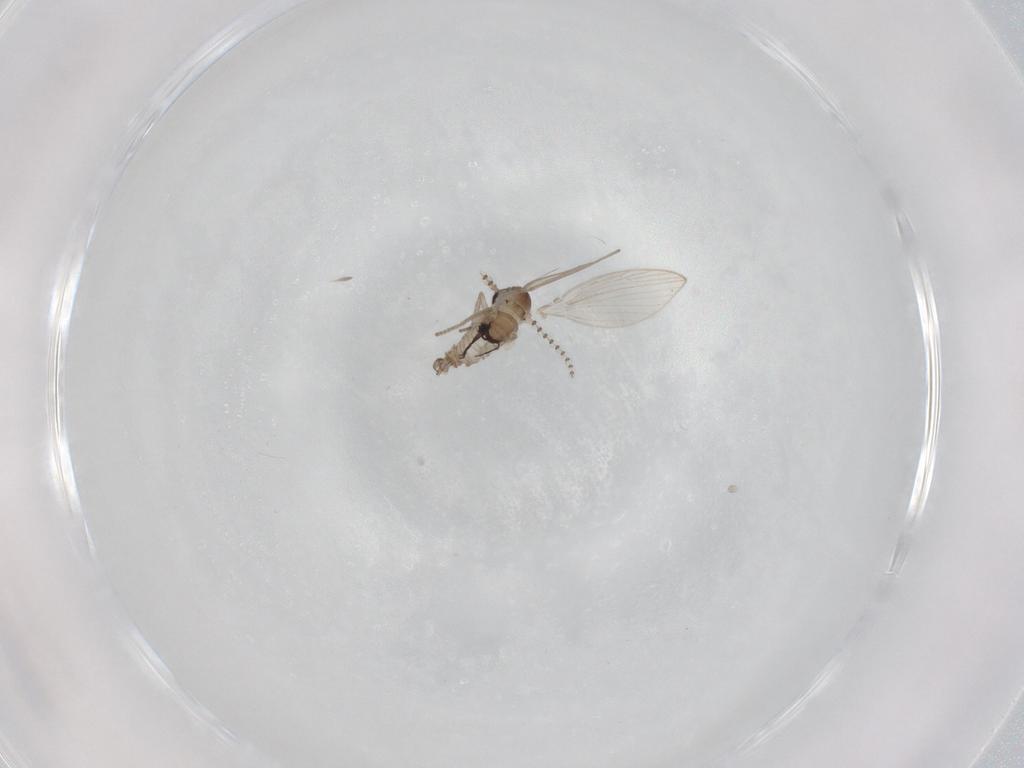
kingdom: Animalia
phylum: Arthropoda
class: Insecta
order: Diptera
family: Psychodidae
